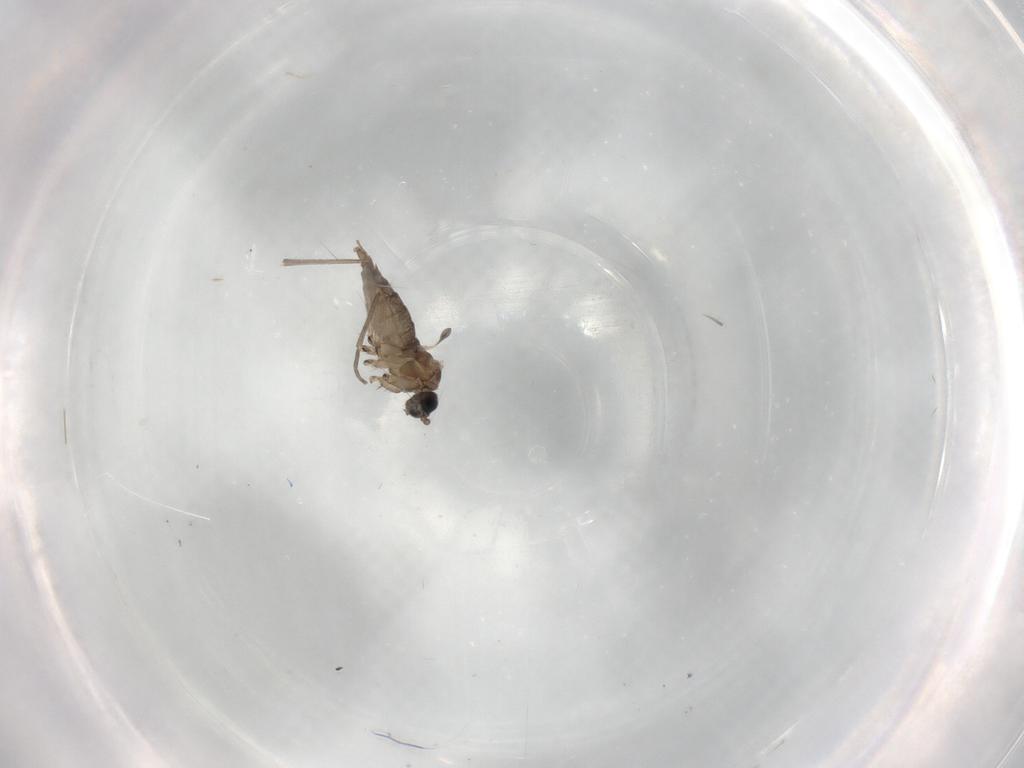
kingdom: Animalia
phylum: Arthropoda
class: Insecta
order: Diptera
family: Sciaridae
